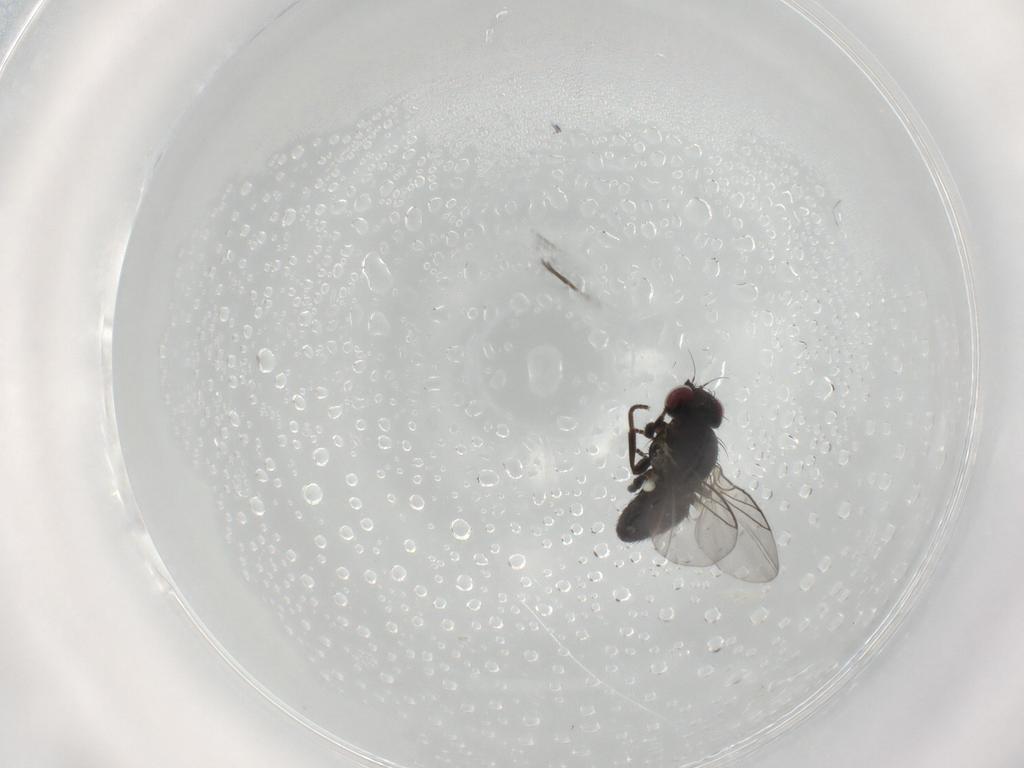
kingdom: Animalia
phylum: Arthropoda
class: Insecta
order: Diptera
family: Sciaridae
